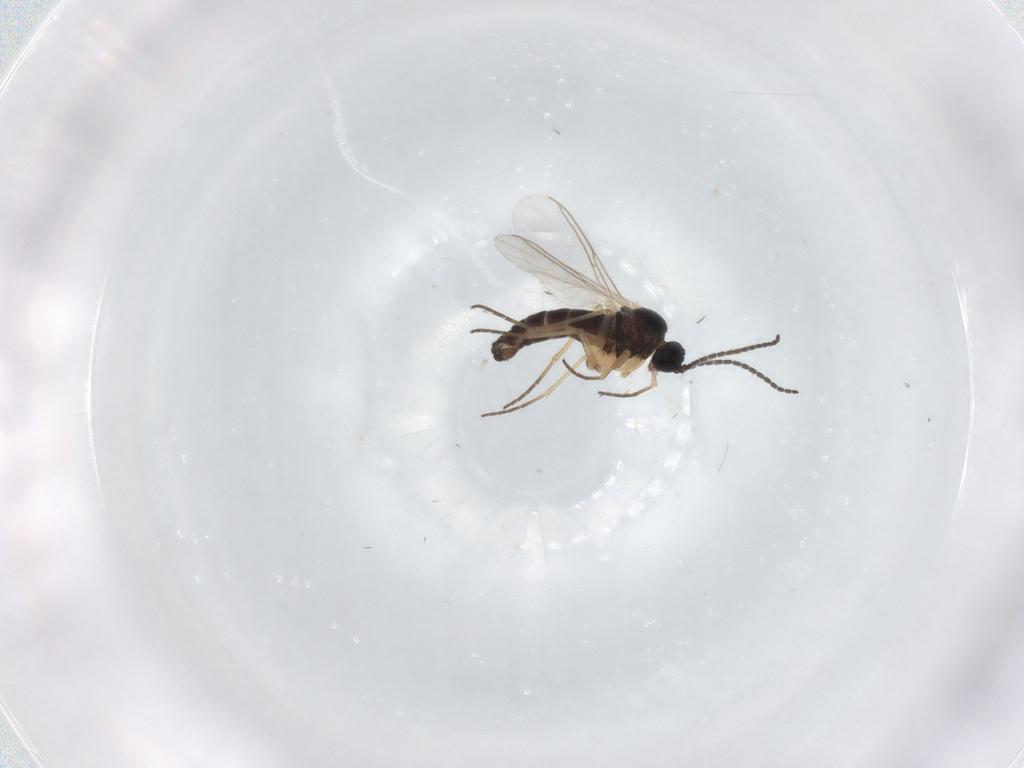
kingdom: Animalia
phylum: Arthropoda
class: Insecta
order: Diptera
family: Sciaridae
